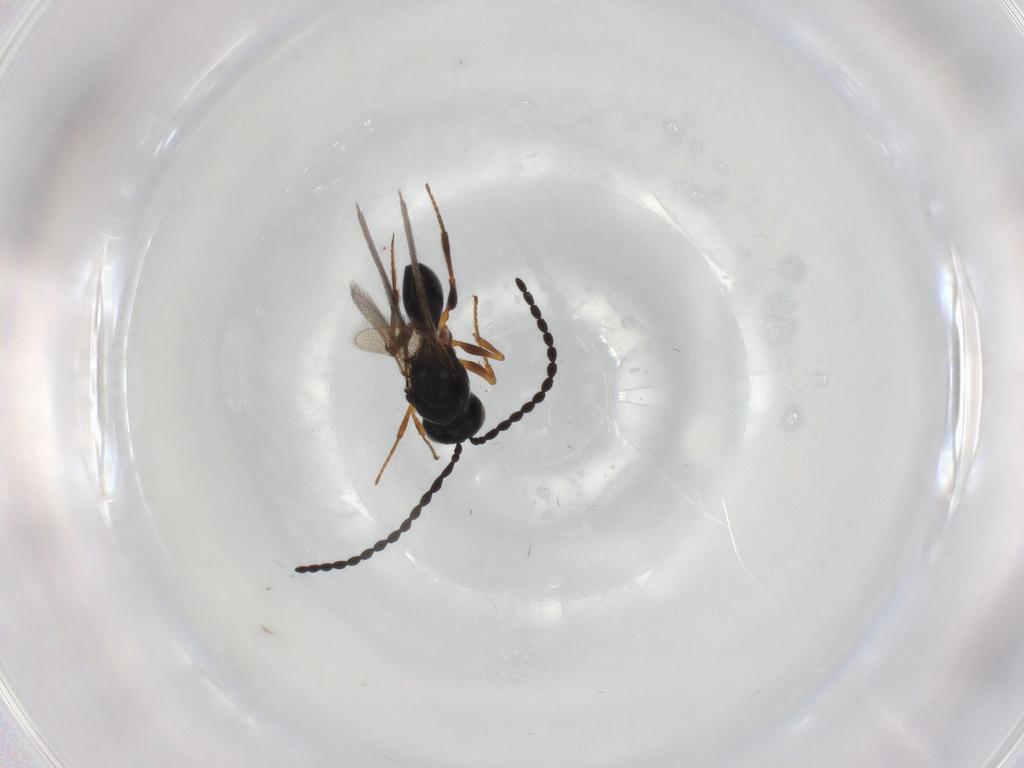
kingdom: Animalia
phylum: Arthropoda
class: Insecta
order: Hymenoptera
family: Figitidae
